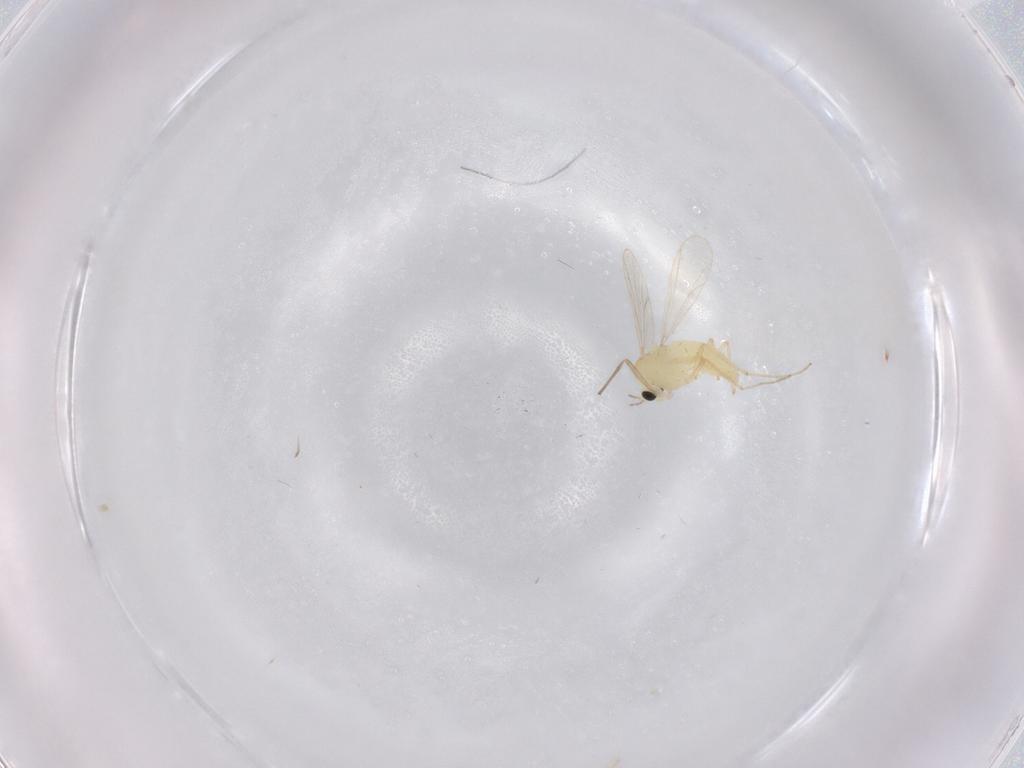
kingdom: Animalia
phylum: Arthropoda
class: Insecta
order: Diptera
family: Chironomidae
